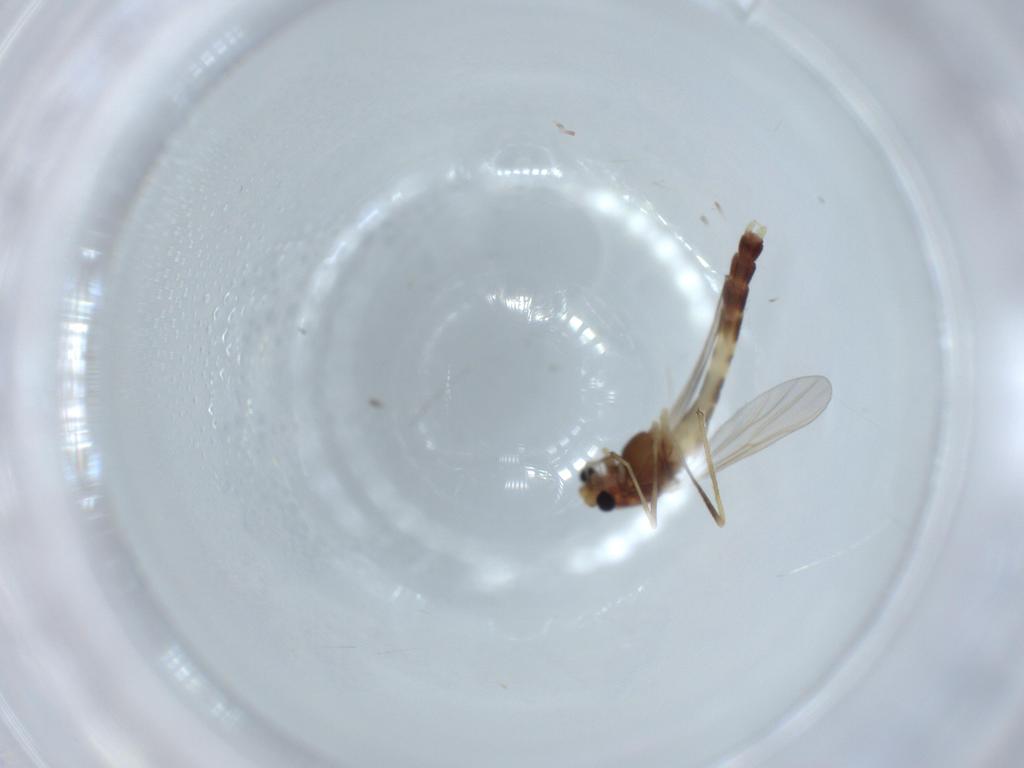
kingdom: Animalia
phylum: Arthropoda
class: Insecta
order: Diptera
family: Chironomidae
